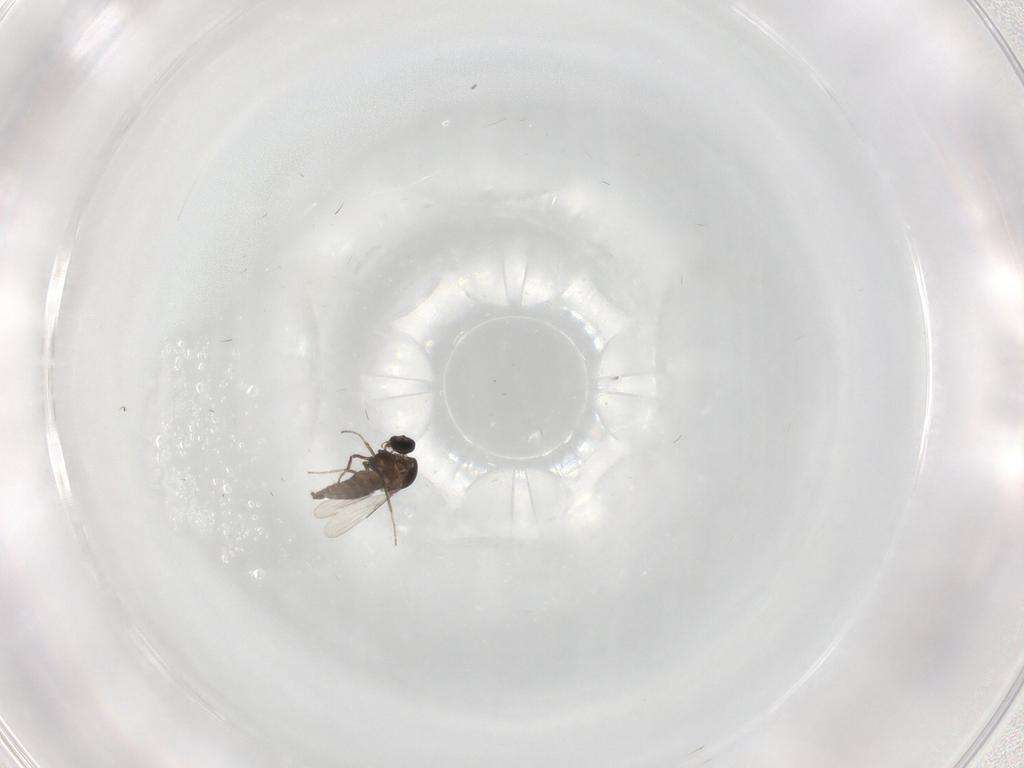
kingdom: Animalia
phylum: Arthropoda
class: Insecta
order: Diptera
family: Ceratopogonidae
